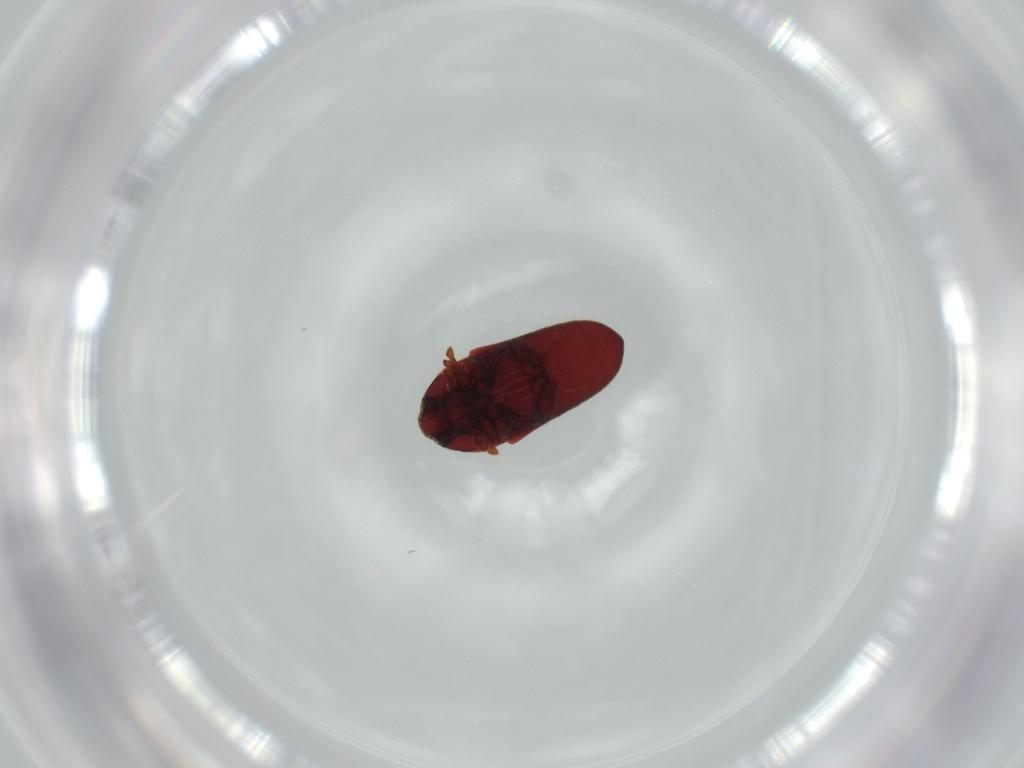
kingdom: Animalia
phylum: Arthropoda
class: Insecta
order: Coleoptera
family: Throscidae
